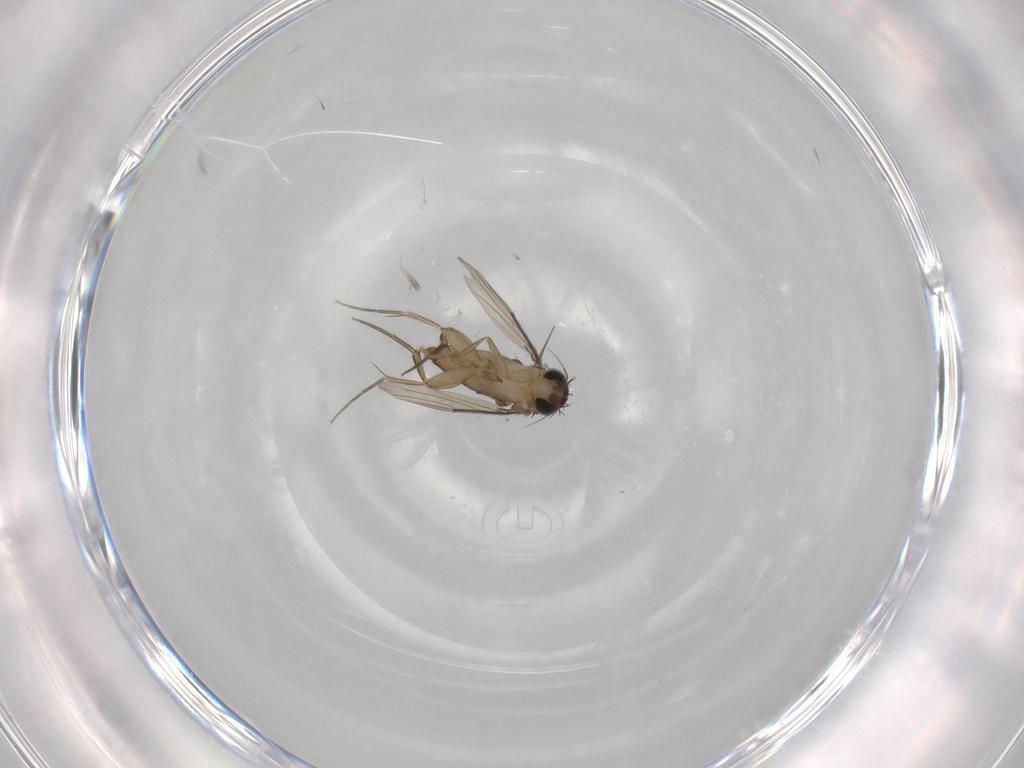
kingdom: Animalia
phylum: Arthropoda
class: Insecta
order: Diptera
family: Phoridae
